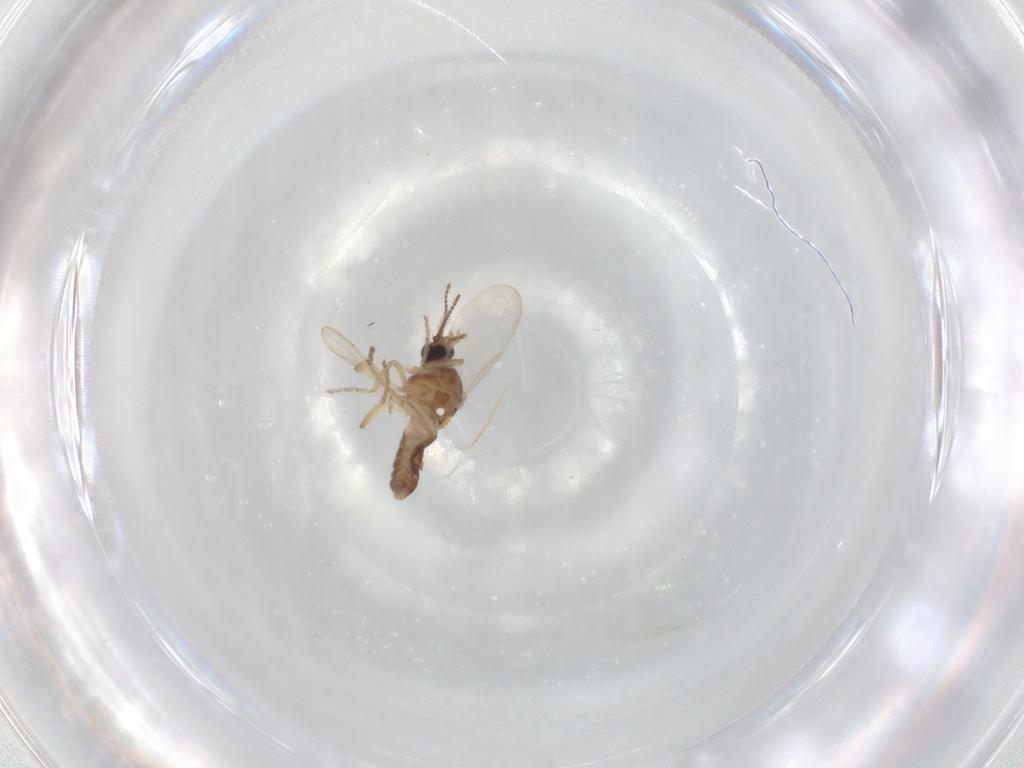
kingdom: Animalia
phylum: Arthropoda
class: Insecta
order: Diptera
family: Ceratopogonidae
